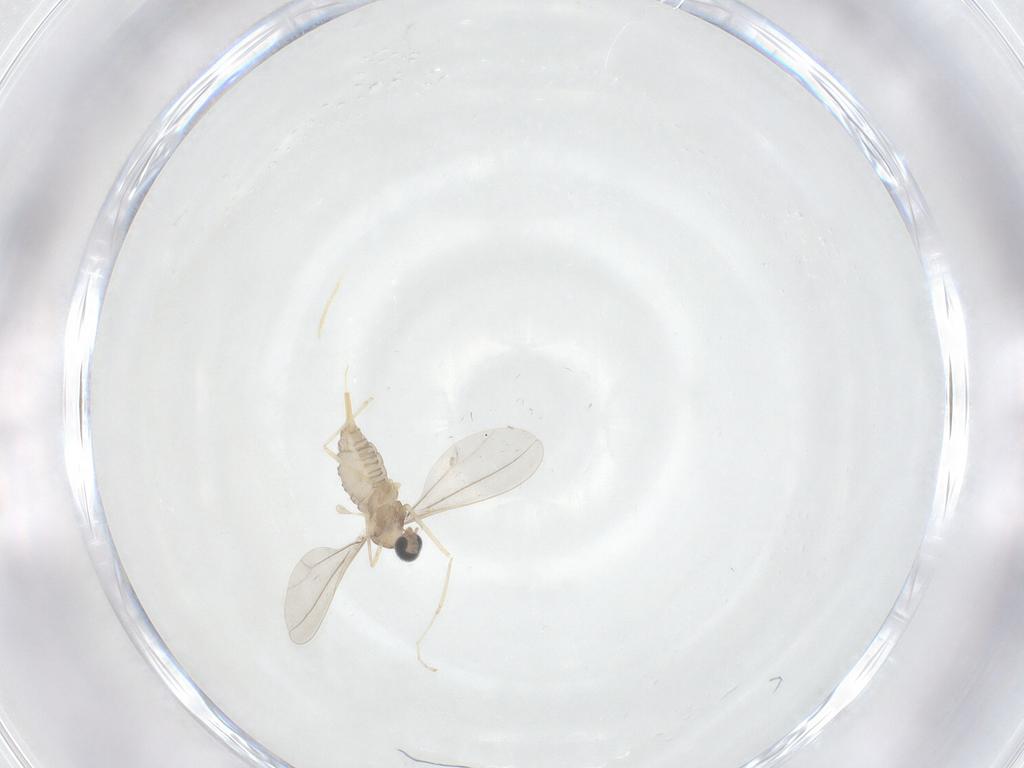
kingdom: Animalia
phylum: Arthropoda
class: Insecta
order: Diptera
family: Cecidomyiidae
